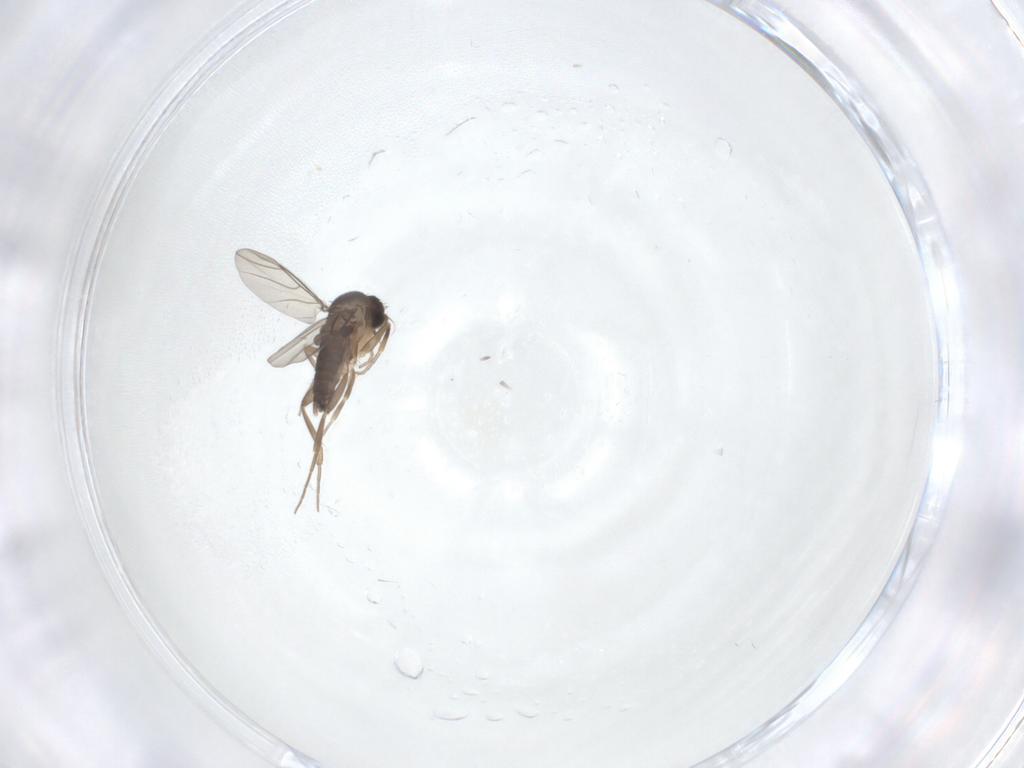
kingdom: Animalia
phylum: Arthropoda
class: Insecta
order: Diptera
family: Phoridae
